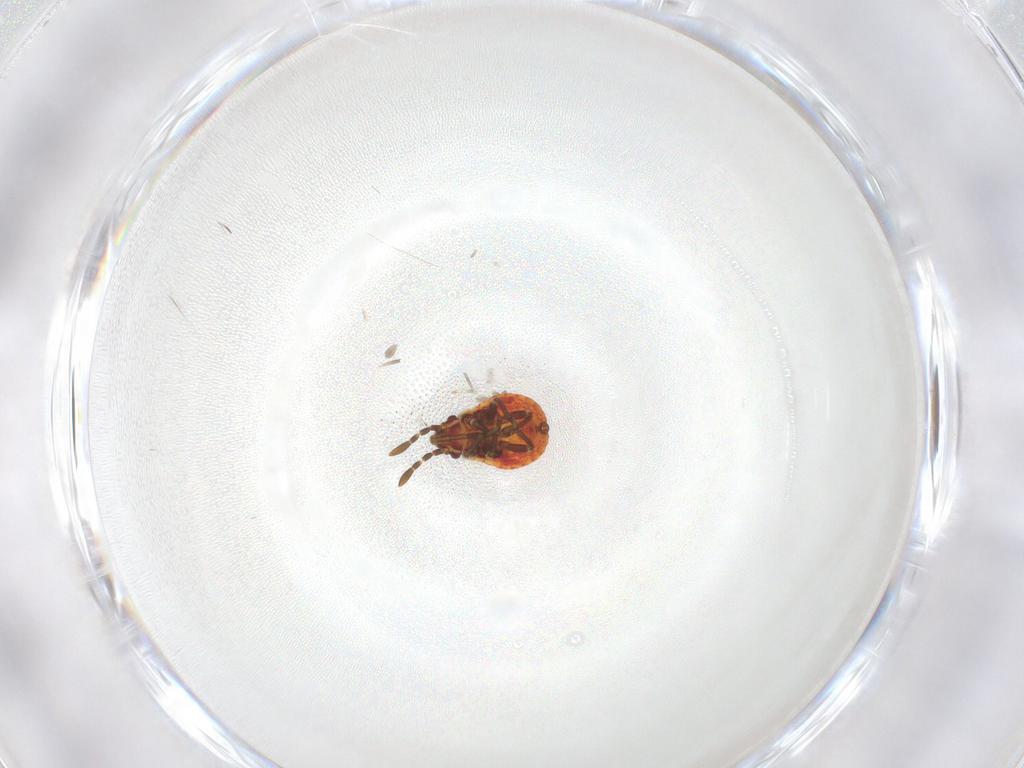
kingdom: Animalia
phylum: Arthropoda
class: Insecta
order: Hemiptera
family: Lygaeidae
